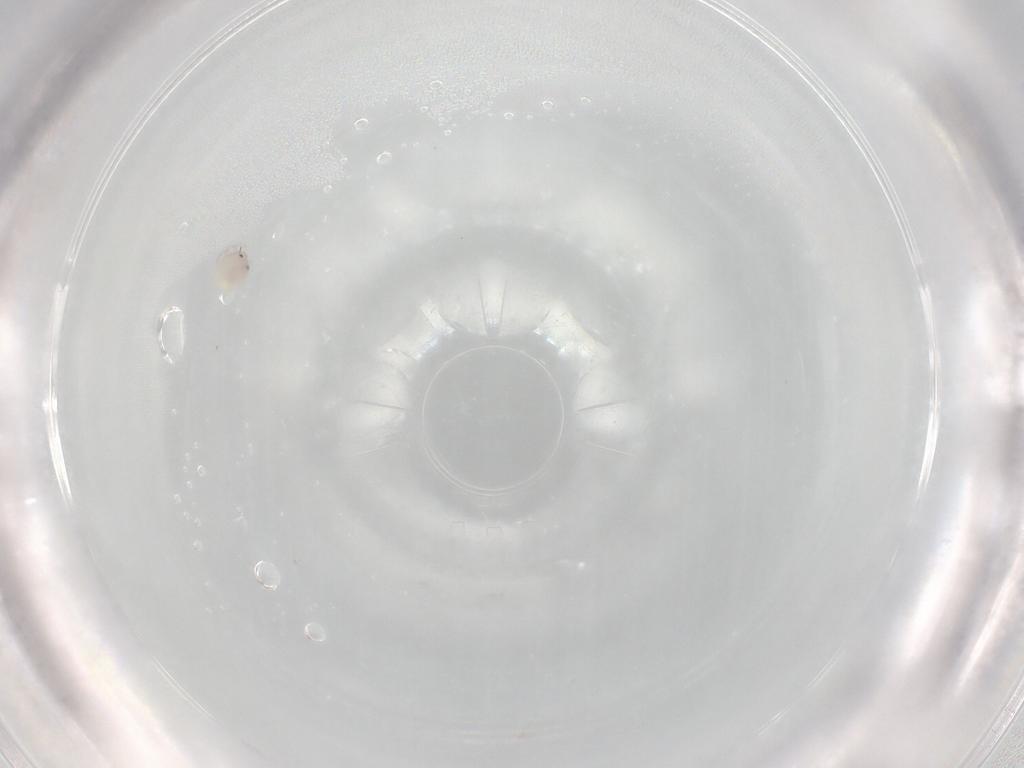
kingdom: Animalia
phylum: Arthropoda
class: Arachnida
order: Trombidiformes
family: Lebertiidae
